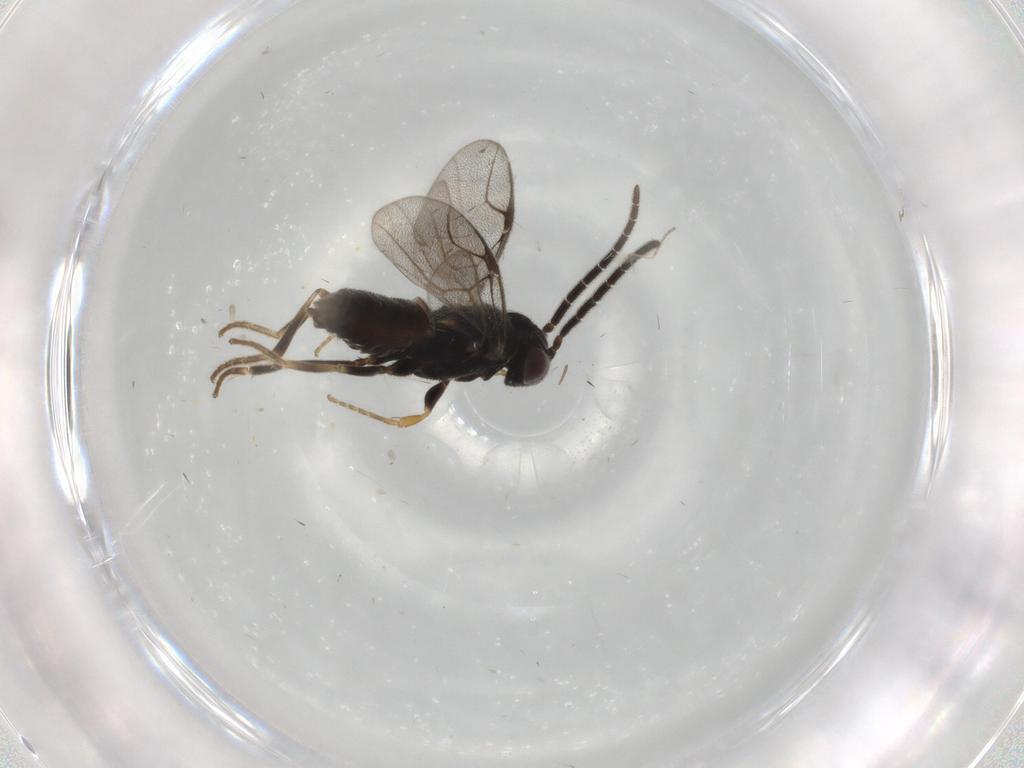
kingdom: Animalia
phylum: Arthropoda
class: Insecta
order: Hymenoptera
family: Dryinidae
